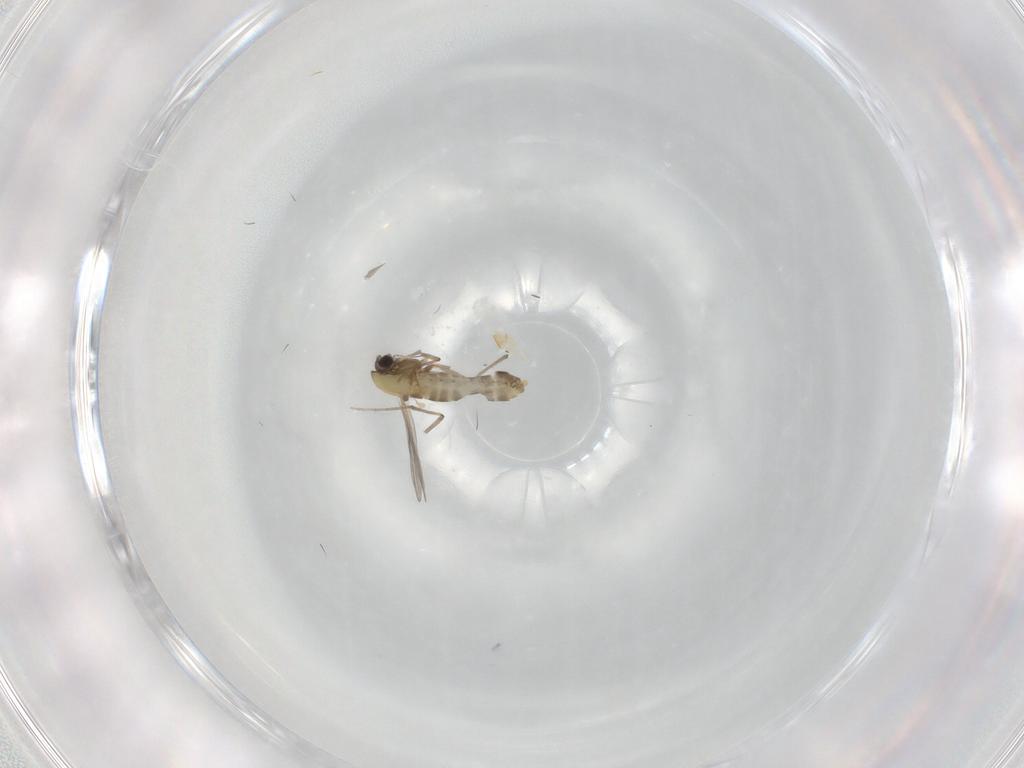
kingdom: Animalia
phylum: Arthropoda
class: Insecta
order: Diptera
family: Chironomidae
